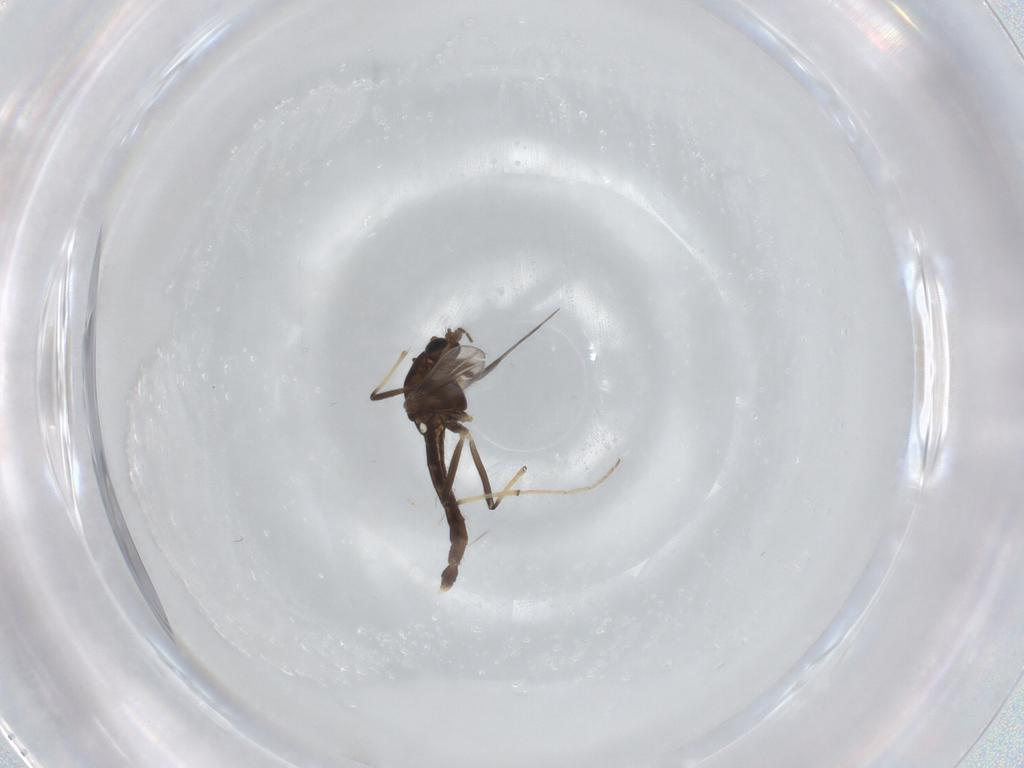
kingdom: Animalia
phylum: Arthropoda
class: Insecta
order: Diptera
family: Chironomidae
